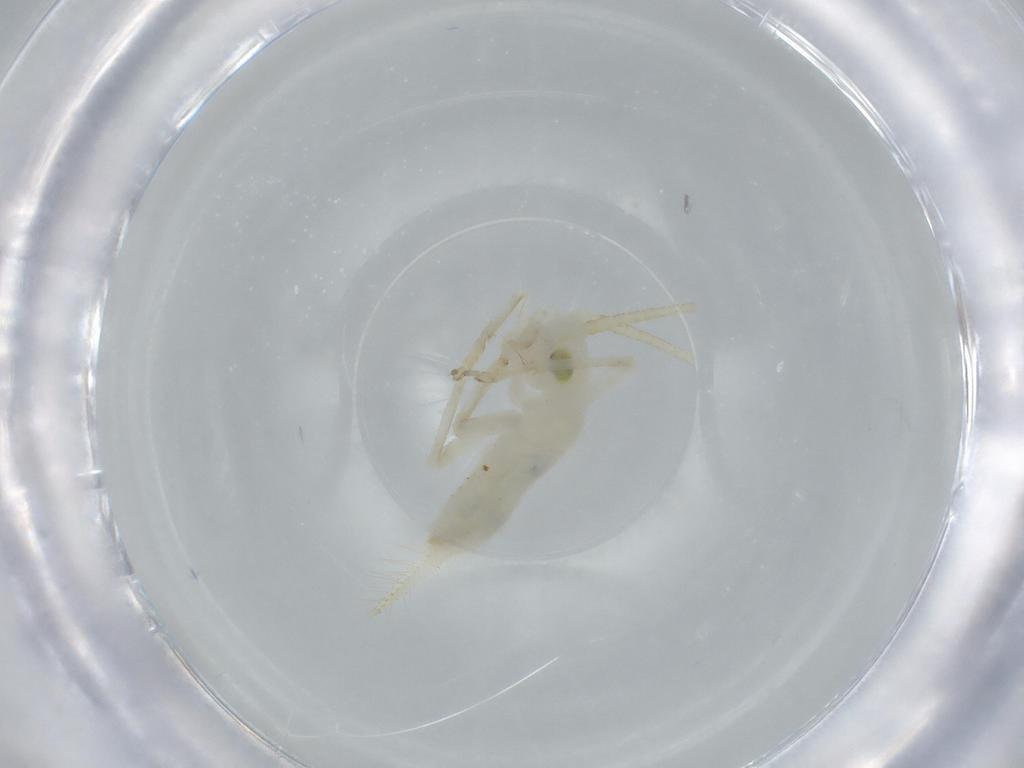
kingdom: Animalia
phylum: Arthropoda
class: Insecta
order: Orthoptera
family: Trigonidiidae
